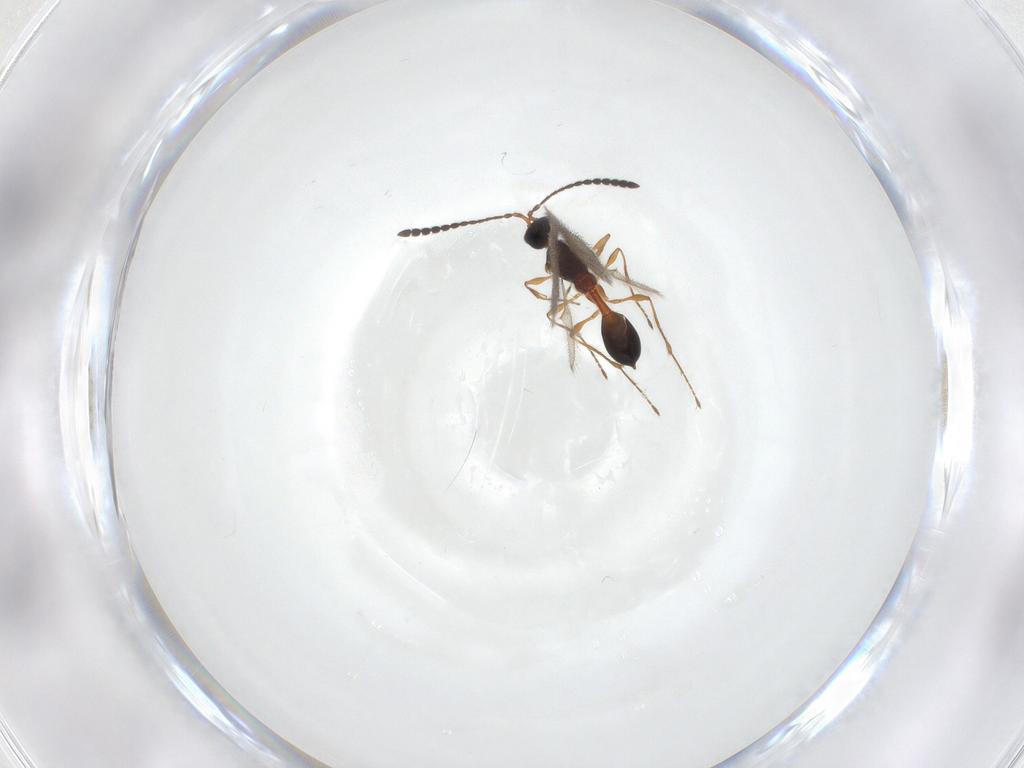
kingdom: Animalia
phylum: Arthropoda
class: Insecta
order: Hymenoptera
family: Diapriidae
